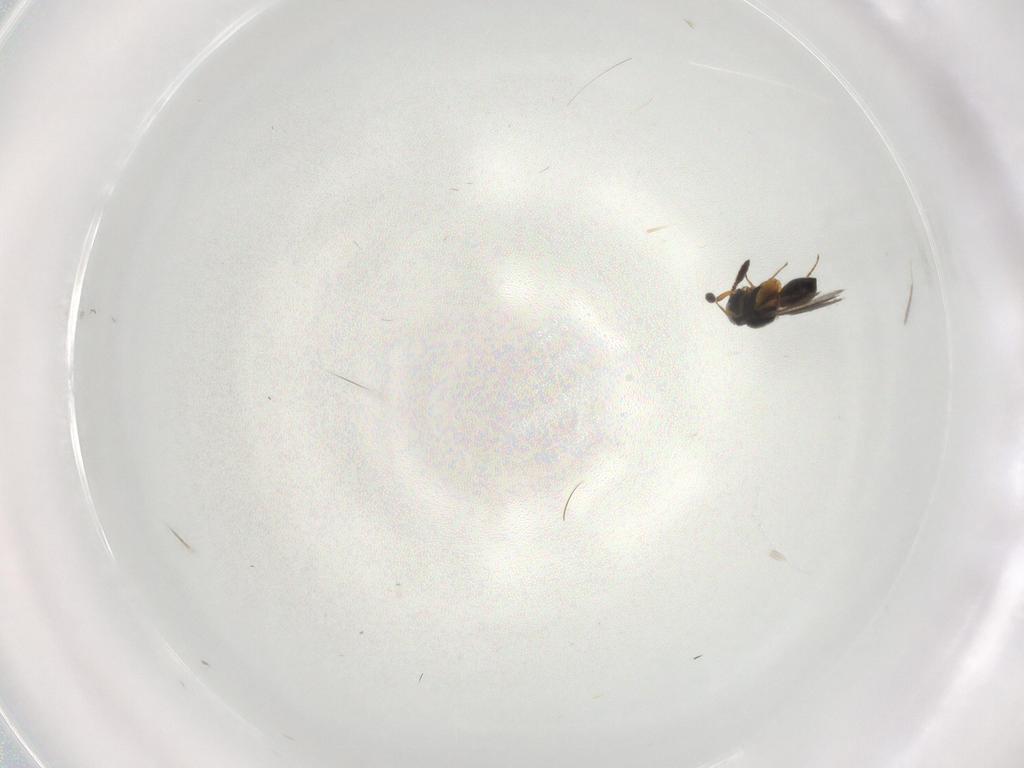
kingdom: Animalia
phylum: Arthropoda
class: Insecta
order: Hymenoptera
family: Scelionidae
